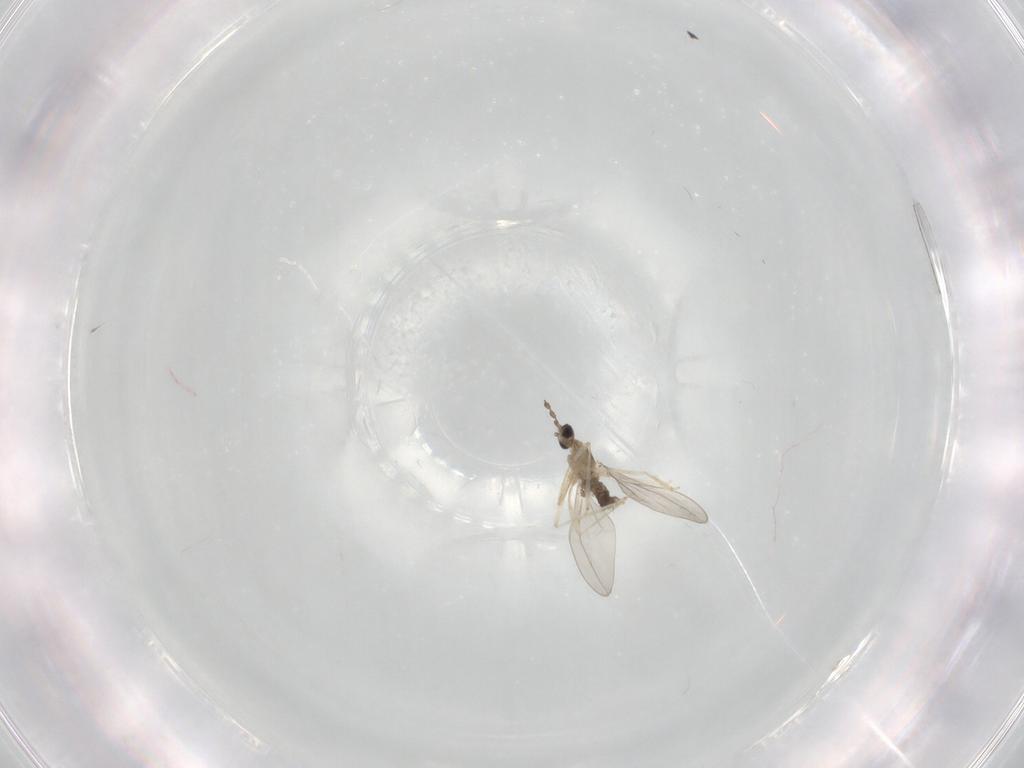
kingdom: Animalia
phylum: Arthropoda
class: Insecta
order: Diptera
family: Cecidomyiidae
